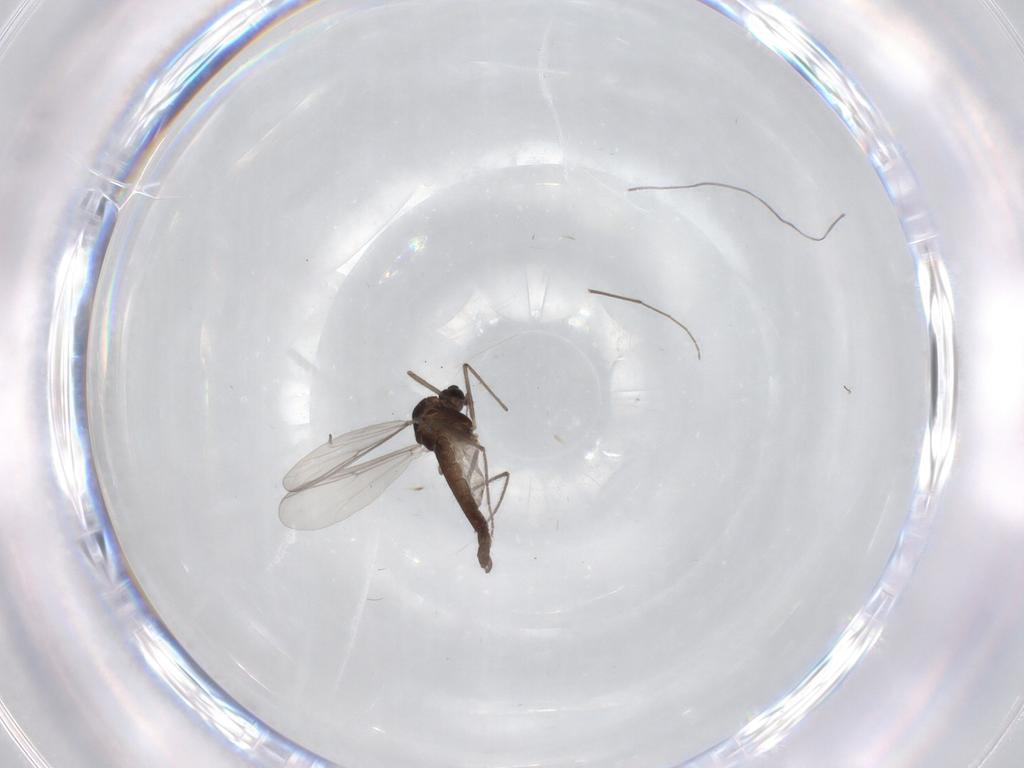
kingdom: Animalia
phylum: Arthropoda
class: Insecta
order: Diptera
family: Chironomidae
